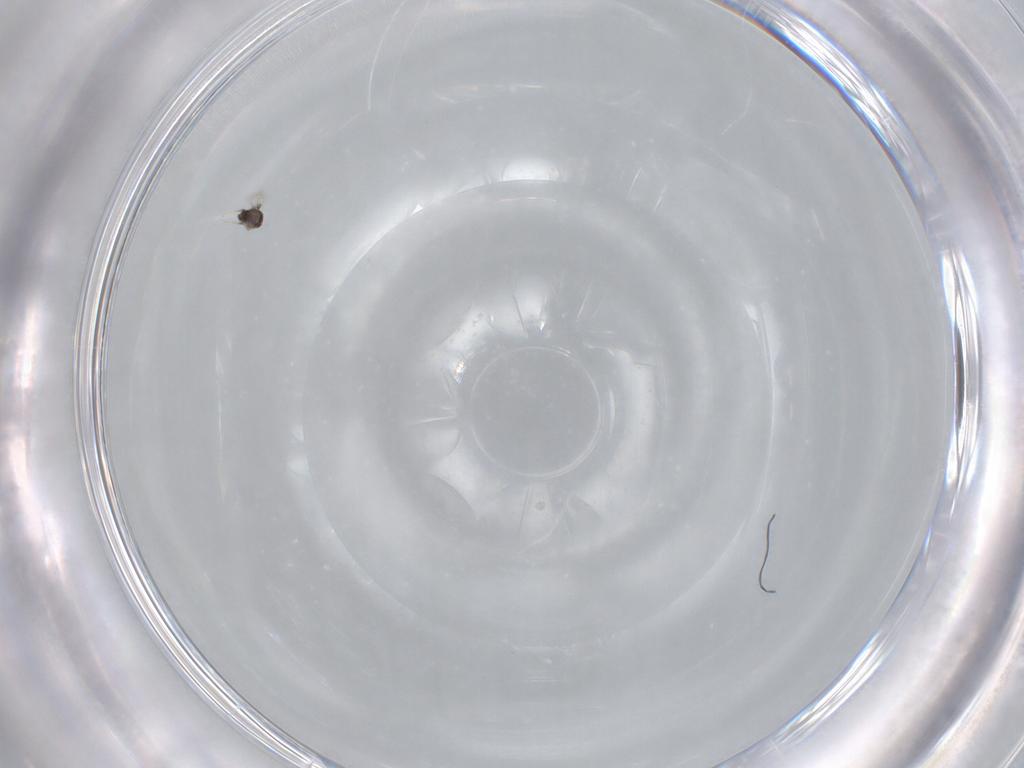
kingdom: Animalia
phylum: Arthropoda
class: Insecta
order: Hymenoptera
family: Aphelinidae
